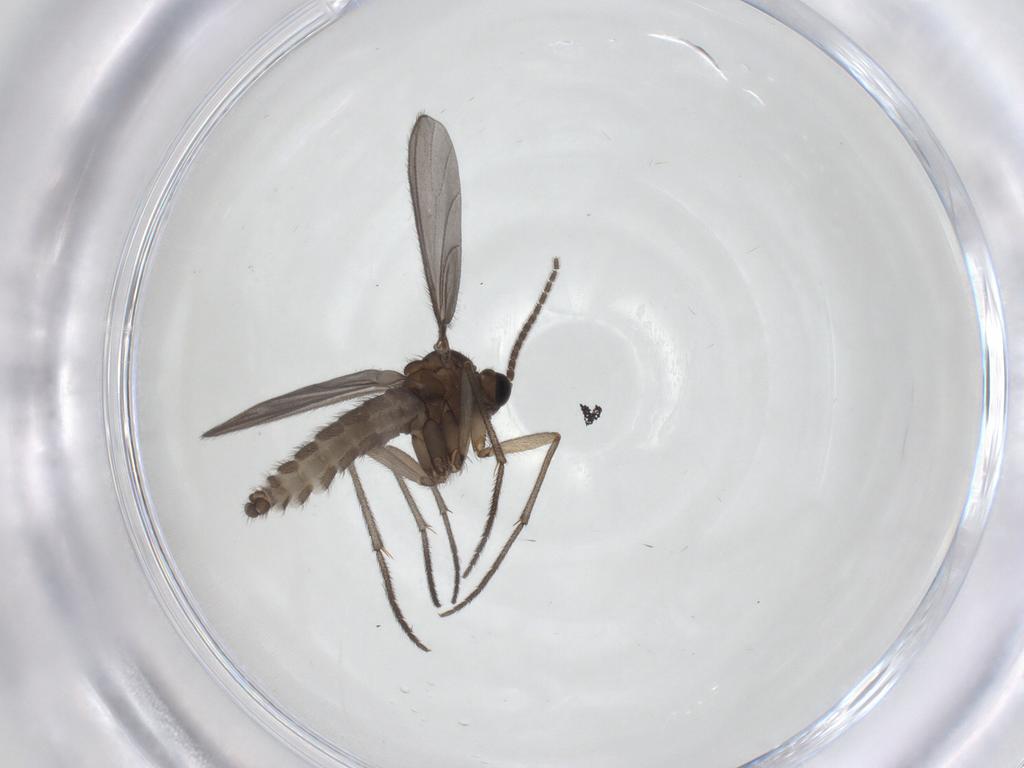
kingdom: Animalia
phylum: Arthropoda
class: Insecta
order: Diptera
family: Sciaridae
